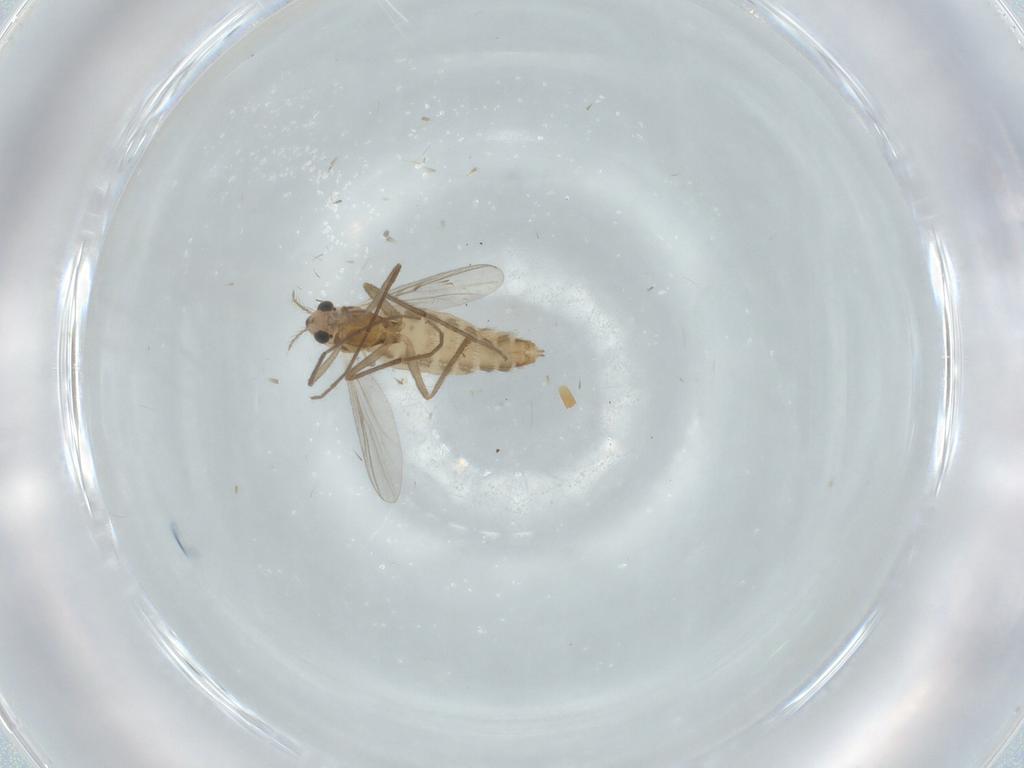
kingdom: Animalia
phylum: Arthropoda
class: Insecta
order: Diptera
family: Chironomidae
